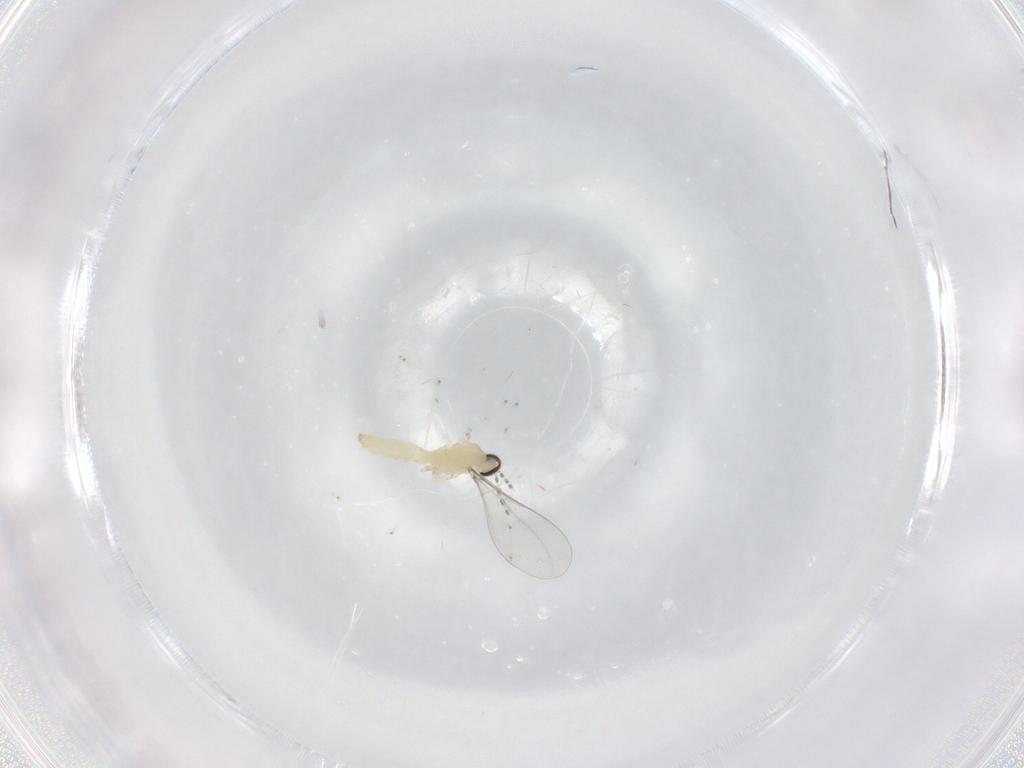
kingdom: Animalia
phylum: Arthropoda
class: Insecta
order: Diptera
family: Cecidomyiidae
